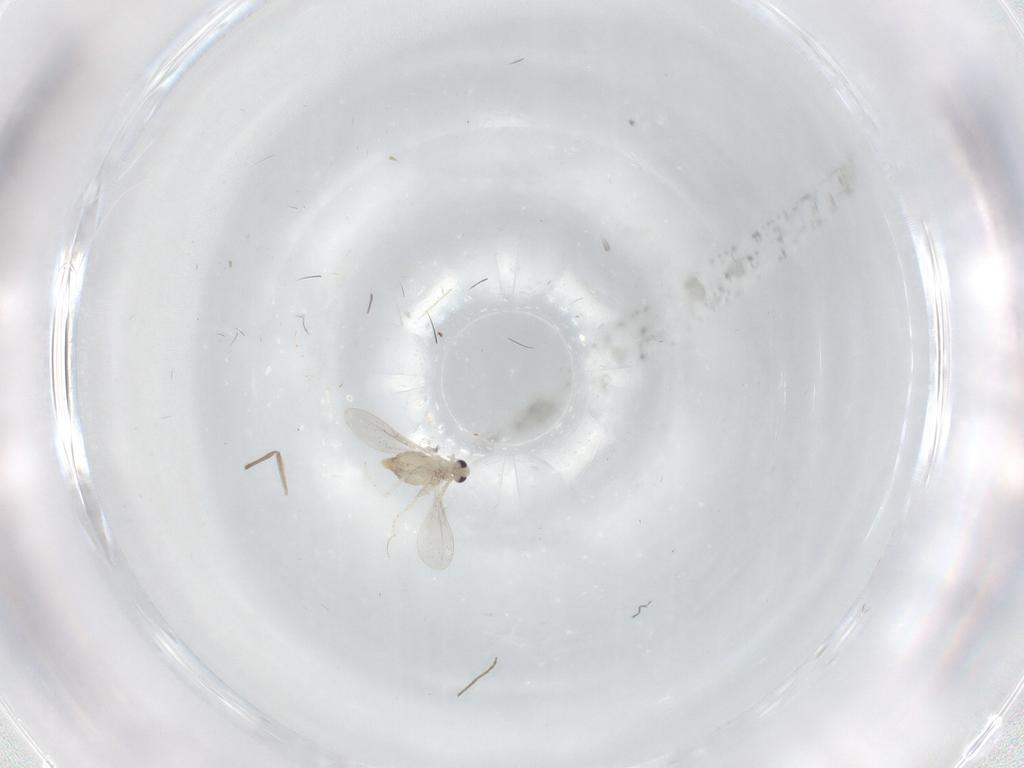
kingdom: Animalia
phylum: Arthropoda
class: Insecta
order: Diptera
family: Cecidomyiidae
